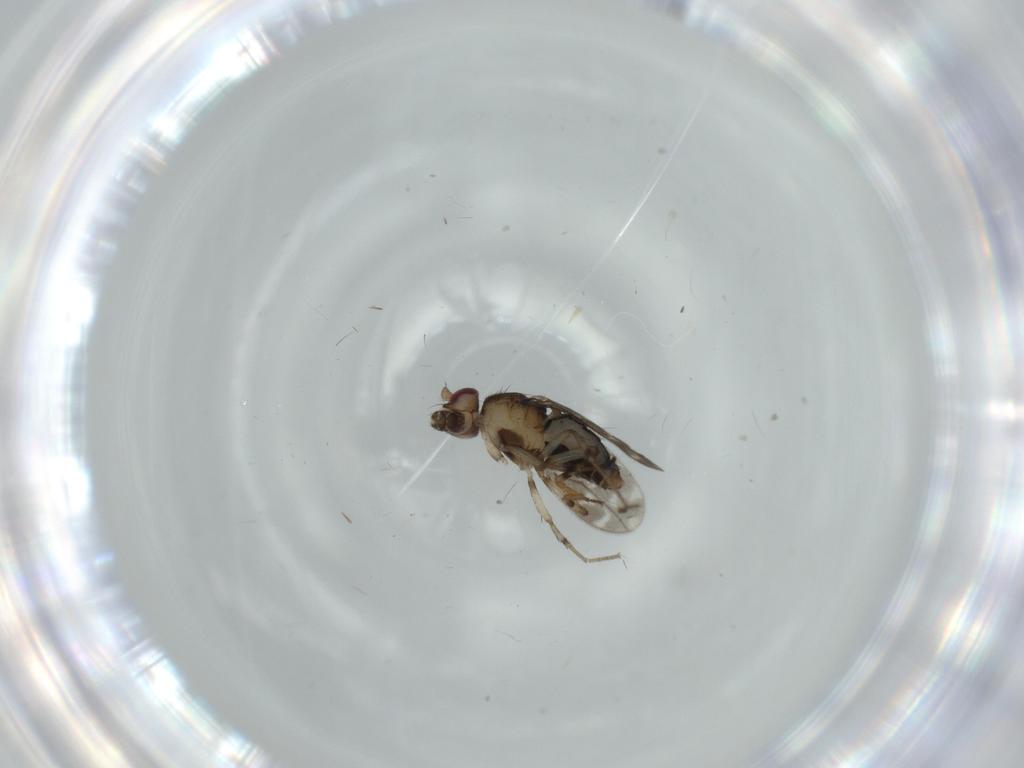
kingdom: Animalia
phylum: Arthropoda
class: Insecta
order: Diptera
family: Sphaeroceridae
